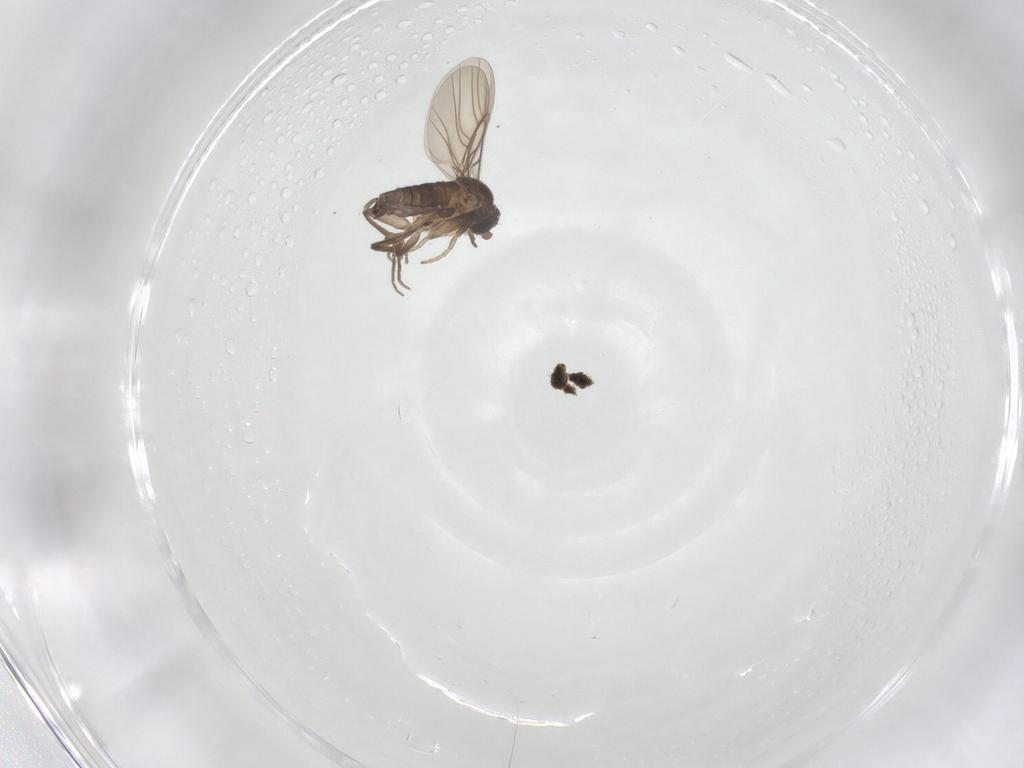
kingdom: Animalia
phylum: Arthropoda
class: Insecta
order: Diptera
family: Phoridae
